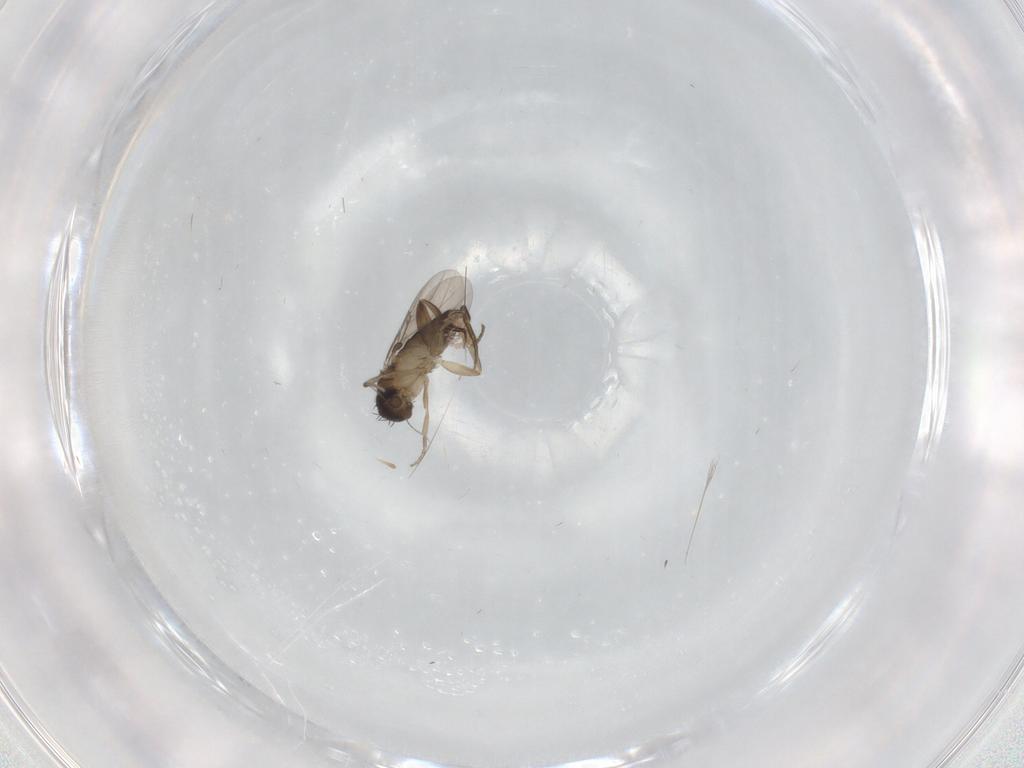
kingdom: Animalia
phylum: Arthropoda
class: Insecta
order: Diptera
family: Phoridae
